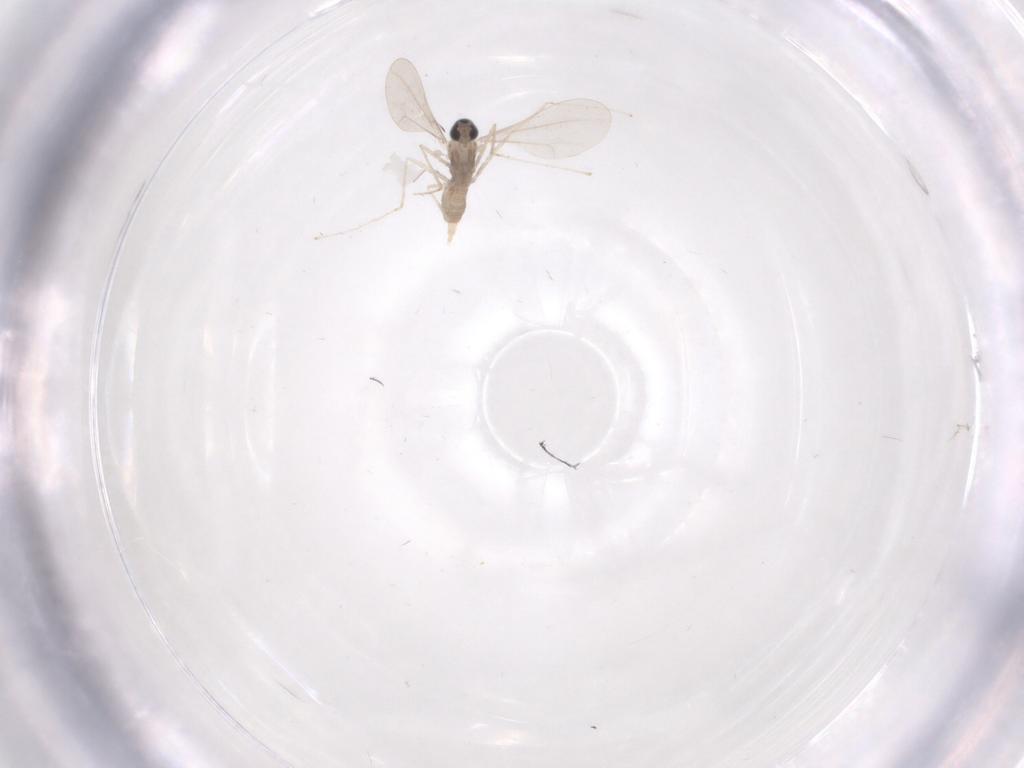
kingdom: Animalia
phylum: Arthropoda
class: Insecta
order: Diptera
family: Cecidomyiidae
